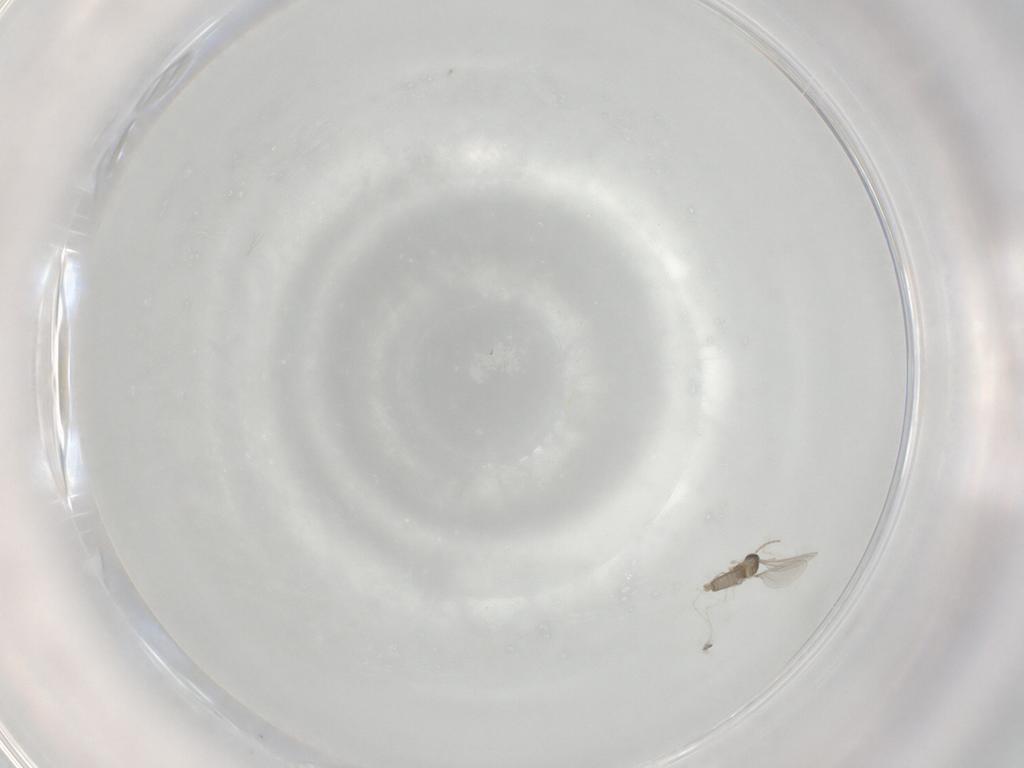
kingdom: Animalia
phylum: Arthropoda
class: Insecta
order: Diptera
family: Cecidomyiidae
